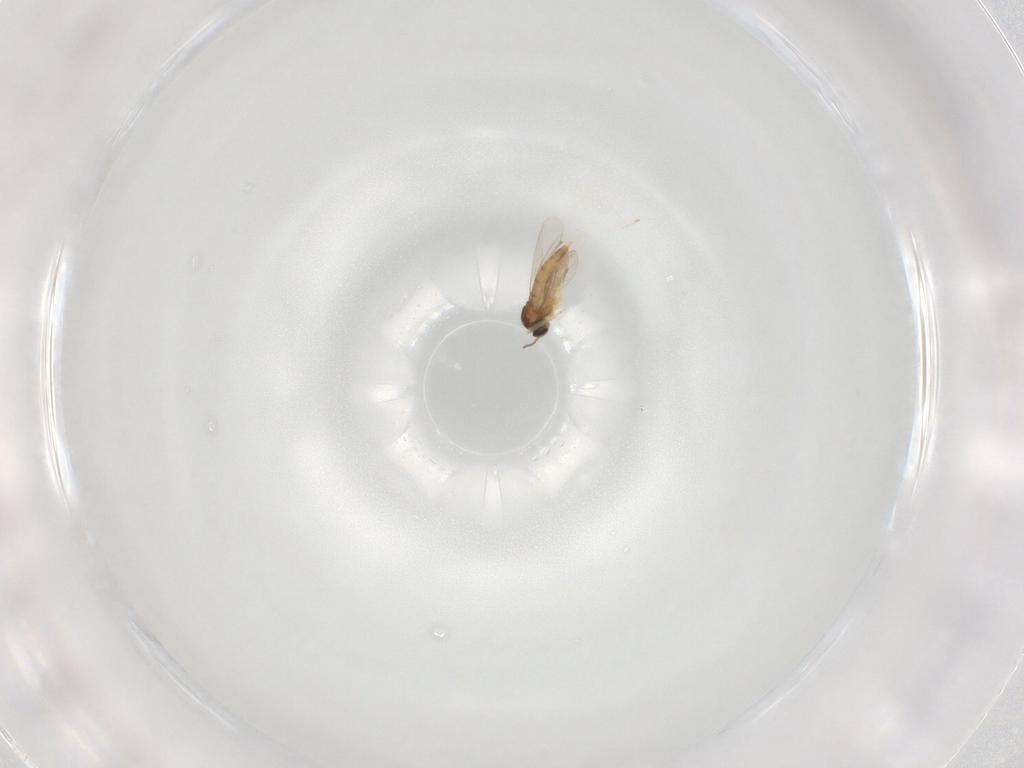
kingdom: Animalia
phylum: Arthropoda
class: Insecta
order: Diptera
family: Cecidomyiidae
